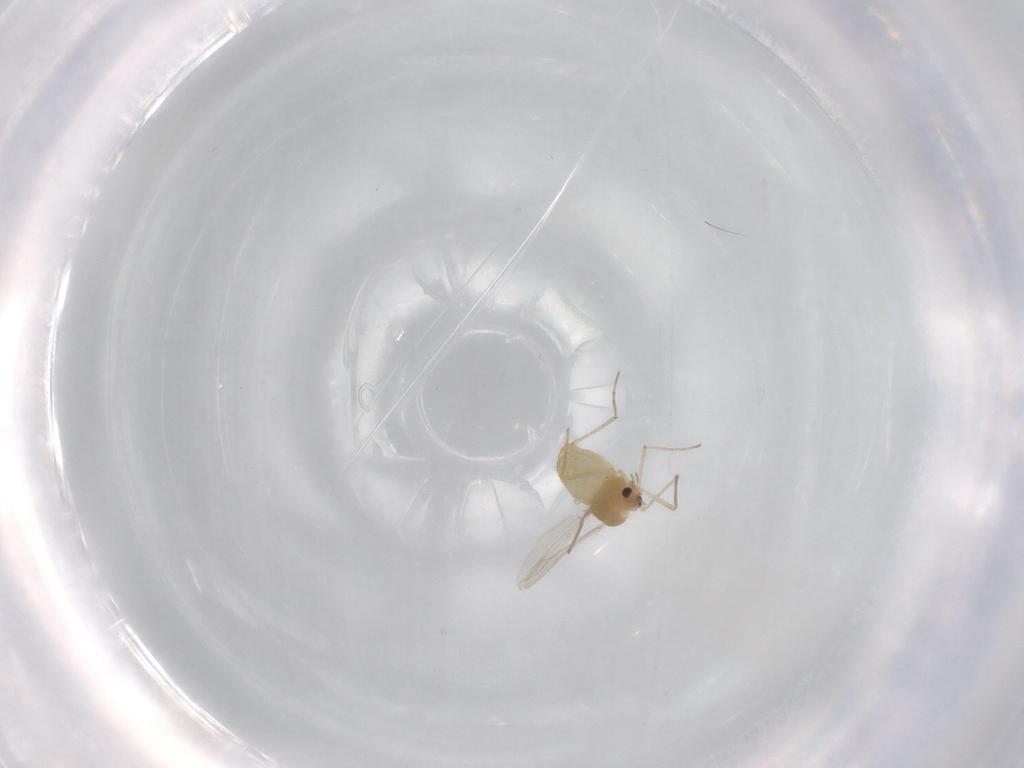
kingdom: Animalia
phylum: Arthropoda
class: Insecta
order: Diptera
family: Chironomidae
